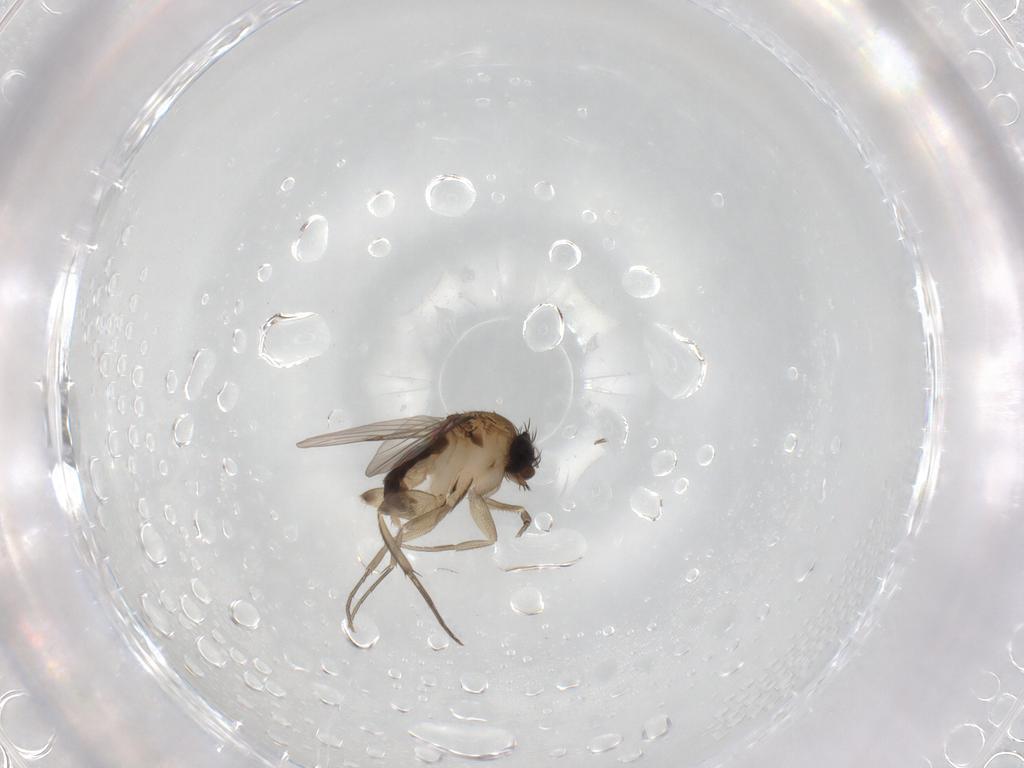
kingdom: Animalia
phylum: Arthropoda
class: Insecta
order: Diptera
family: Phoridae
